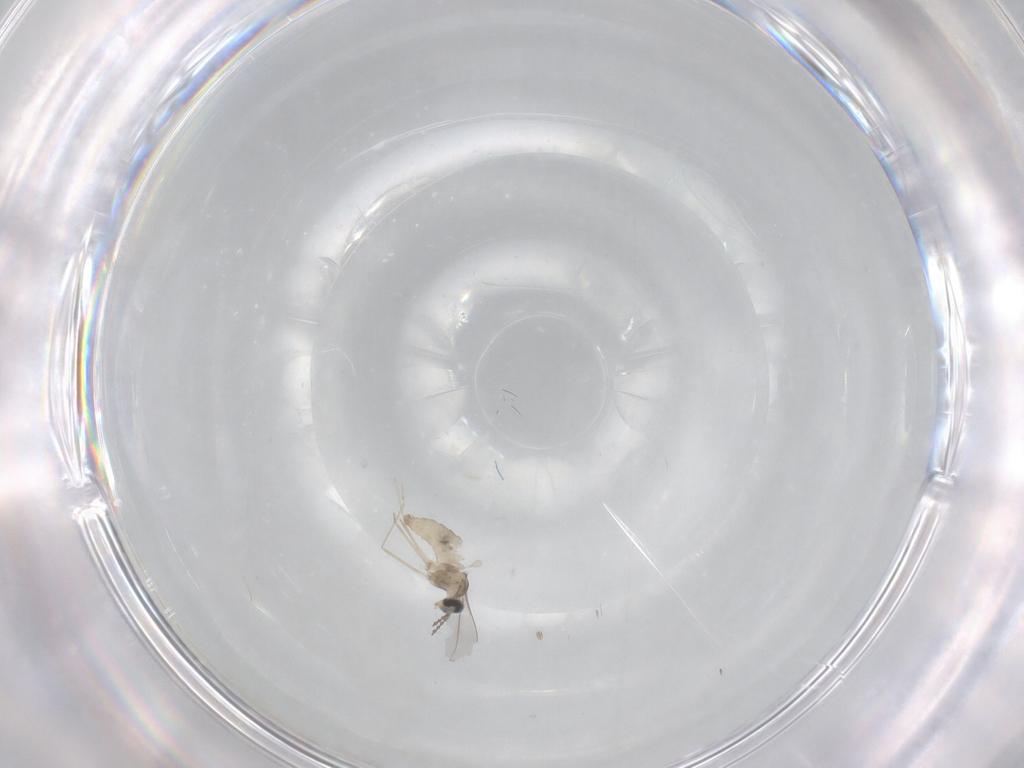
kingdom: Animalia
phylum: Arthropoda
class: Insecta
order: Diptera
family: Cecidomyiidae
